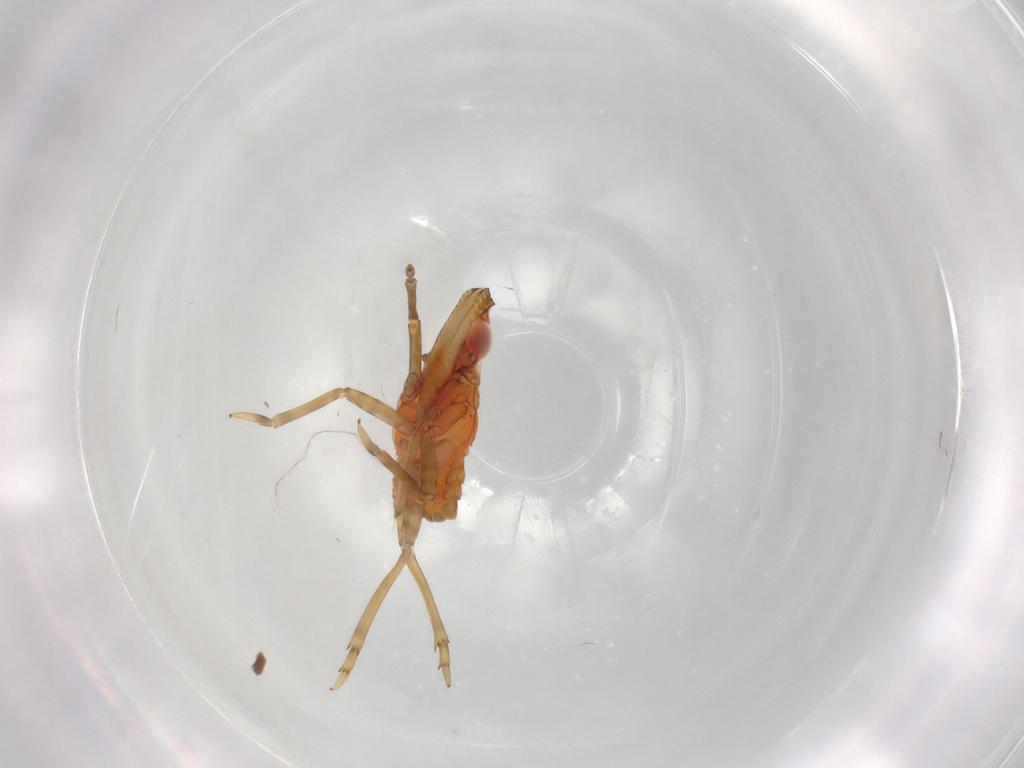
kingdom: Animalia
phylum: Arthropoda
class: Insecta
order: Hemiptera
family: Fulgoroidea_incertae_sedis
